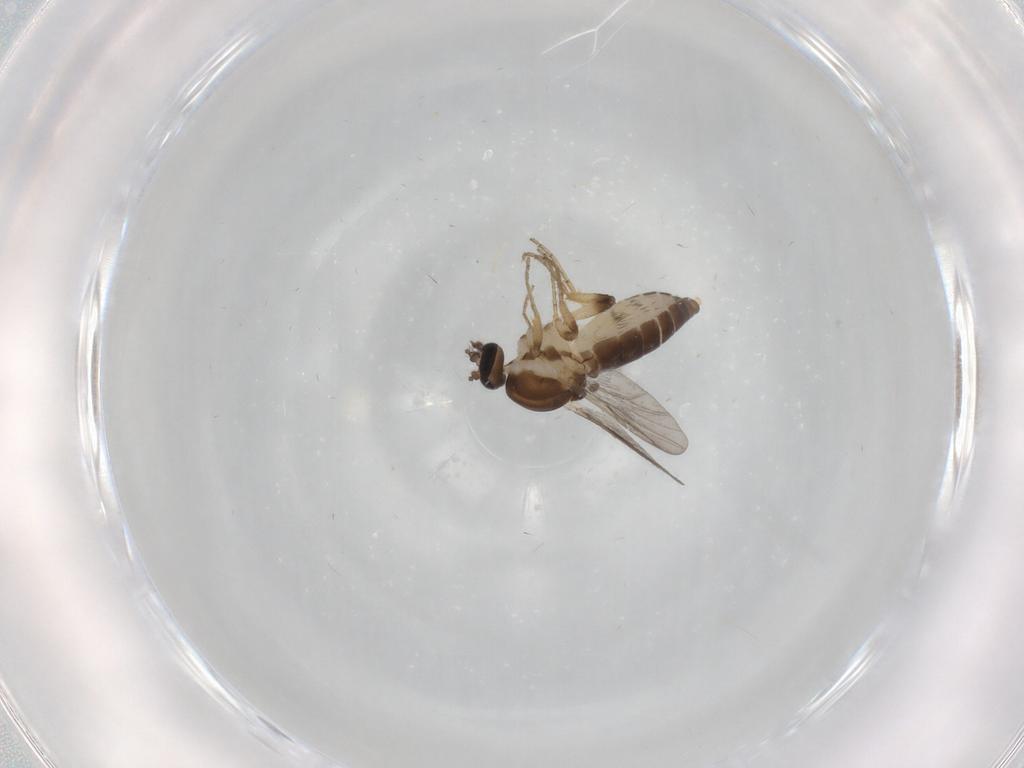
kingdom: Animalia
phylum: Arthropoda
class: Insecta
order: Diptera
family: Ceratopogonidae
